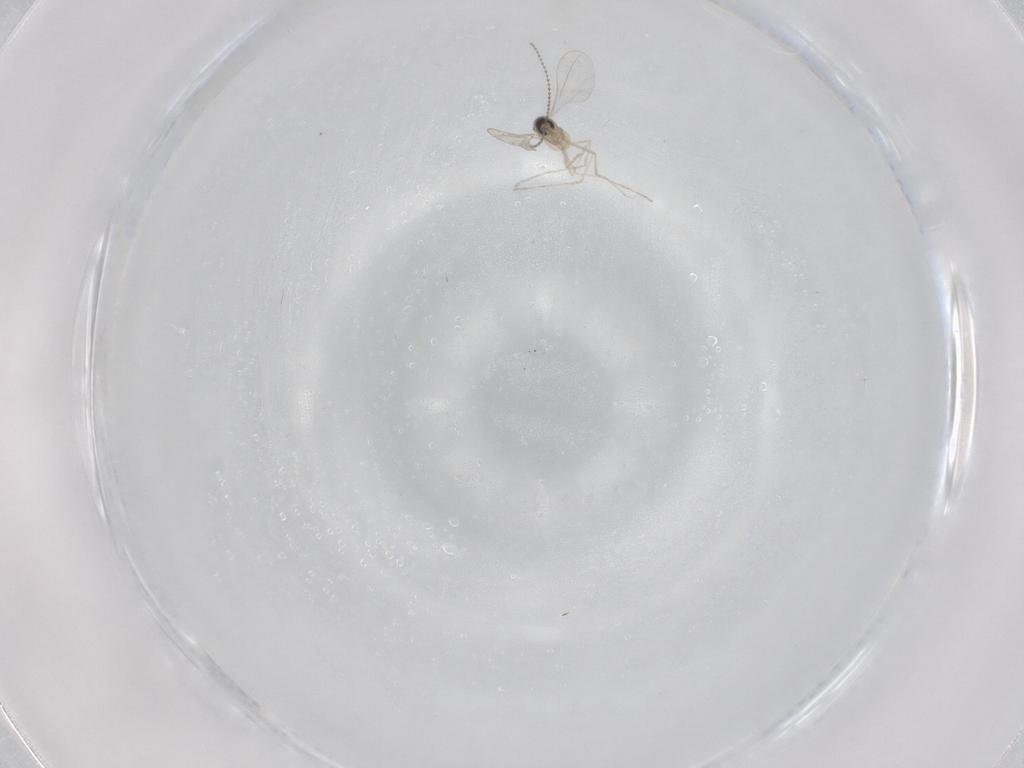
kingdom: Animalia
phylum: Arthropoda
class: Insecta
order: Diptera
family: Cecidomyiidae
